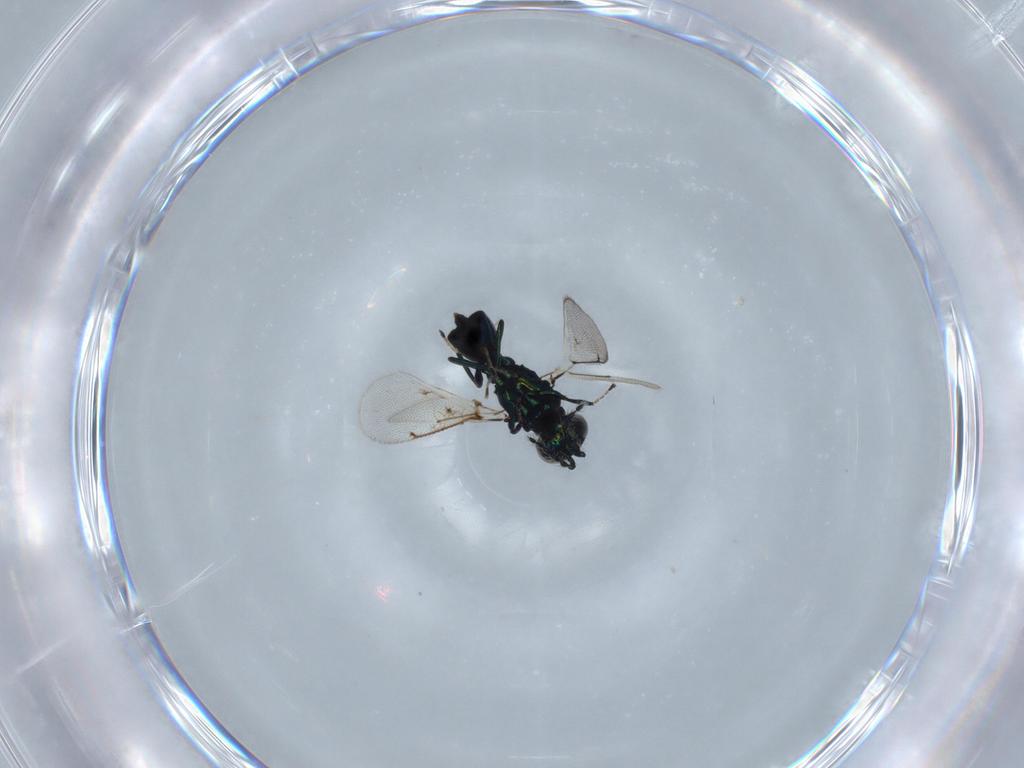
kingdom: Animalia
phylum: Arthropoda
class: Insecta
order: Hymenoptera
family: Eulophidae
